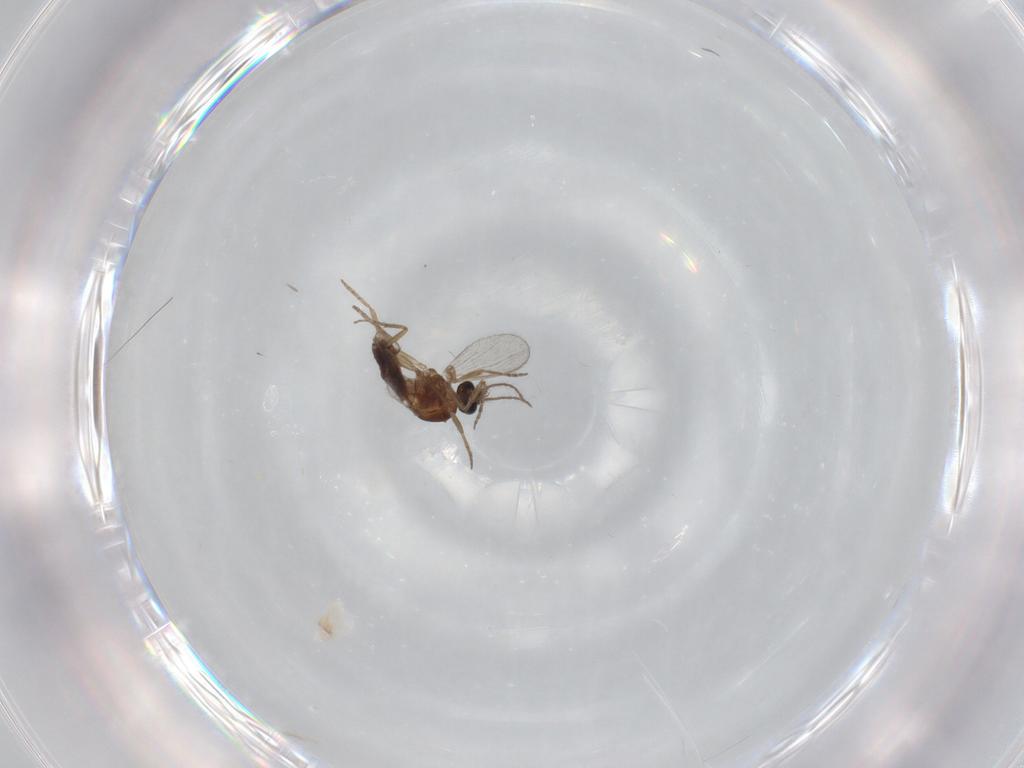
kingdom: Animalia
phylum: Arthropoda
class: Insecta
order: Diptera
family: Cecidomyiidae
